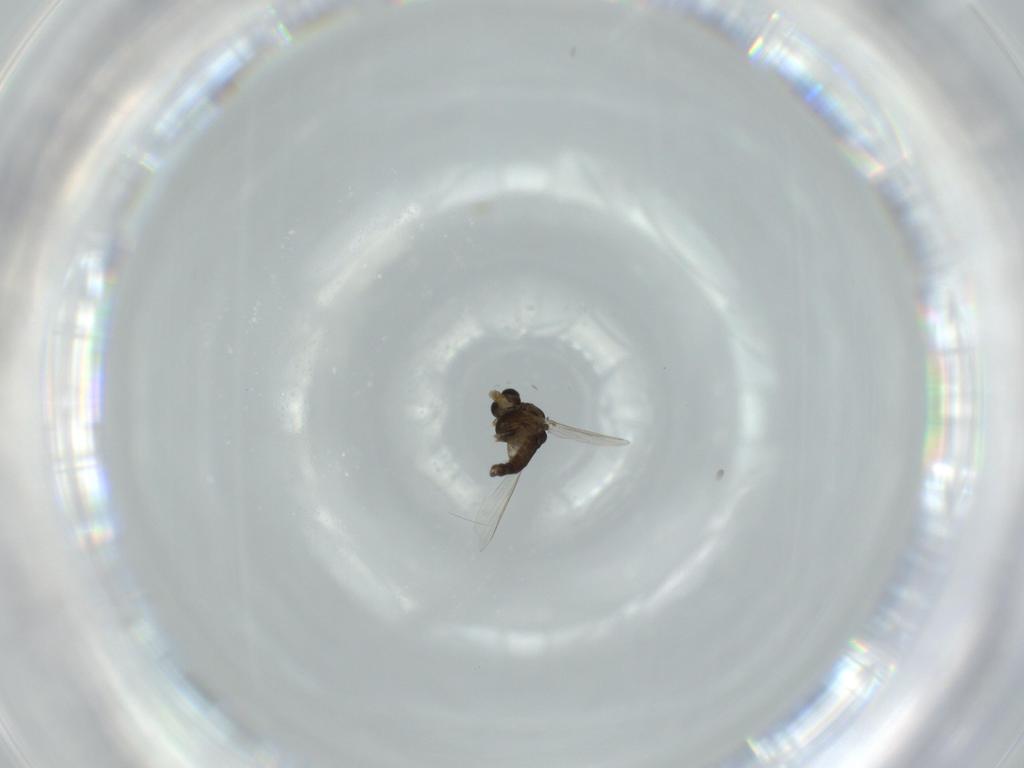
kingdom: Animalia
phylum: Arthropoda
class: Insecta
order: Diptera
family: Chironomidae
